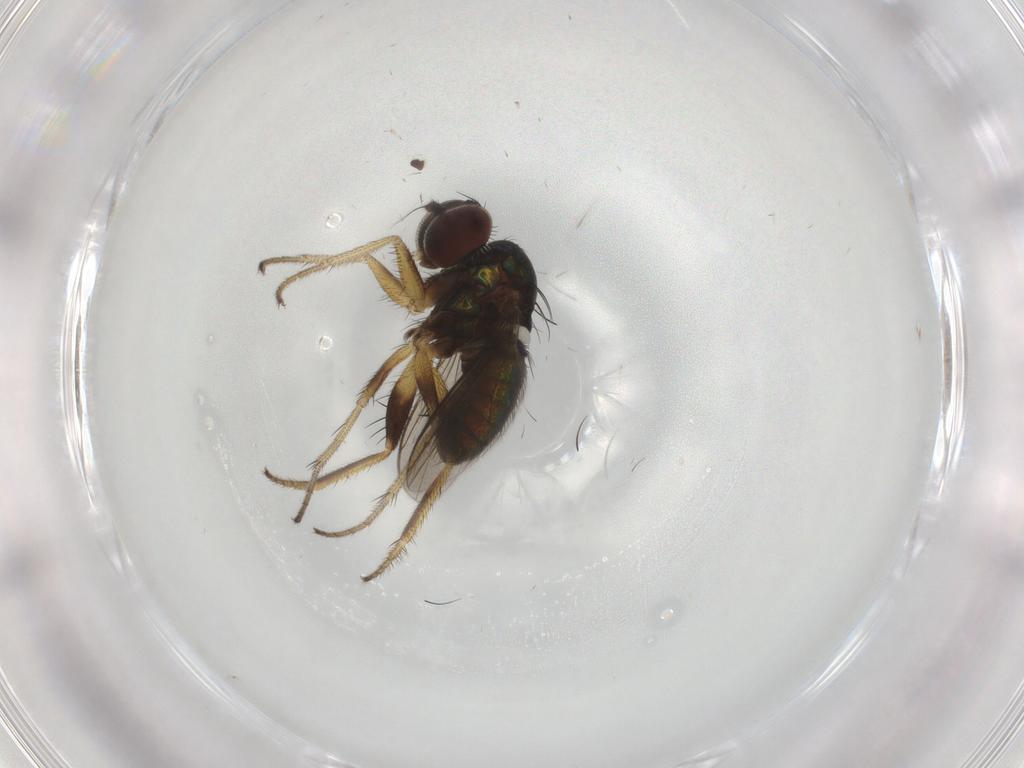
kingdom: Animalia
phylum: Arthropoda
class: Insecta
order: Diptera
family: Dolichopodidae
